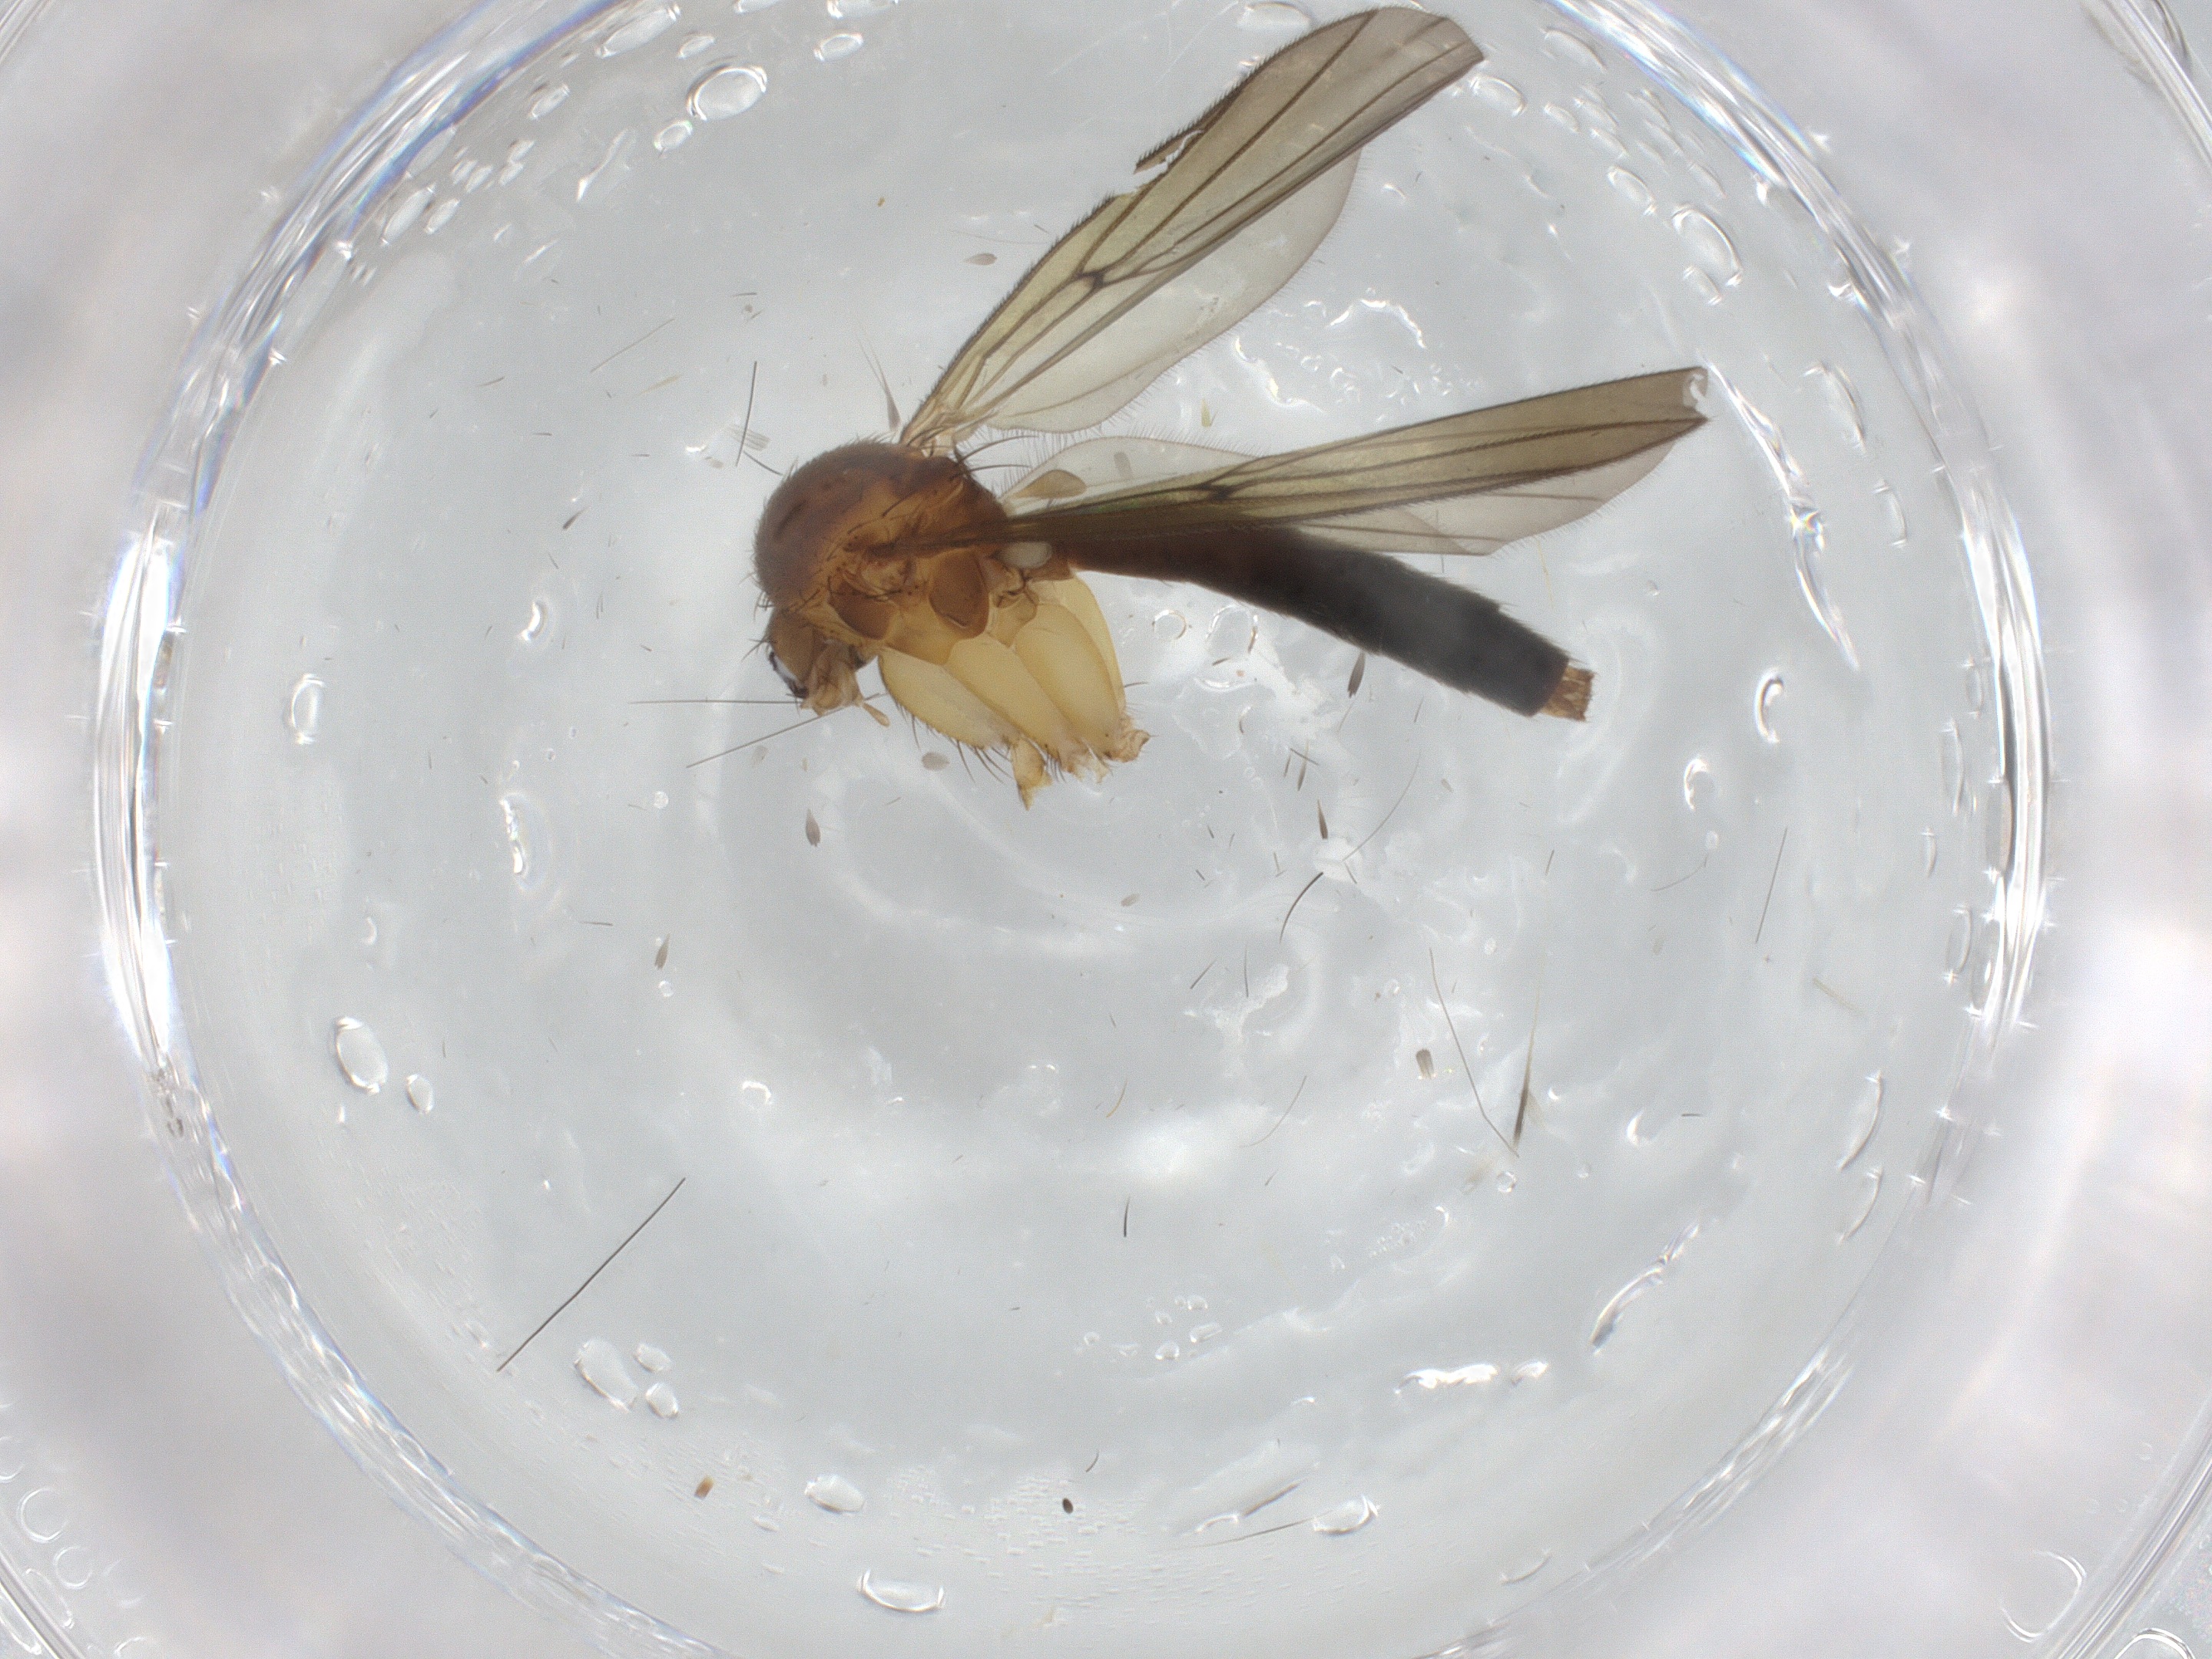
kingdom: Animalia
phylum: Arthropoda
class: Insecta
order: Diptera
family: Mycetophilidae
